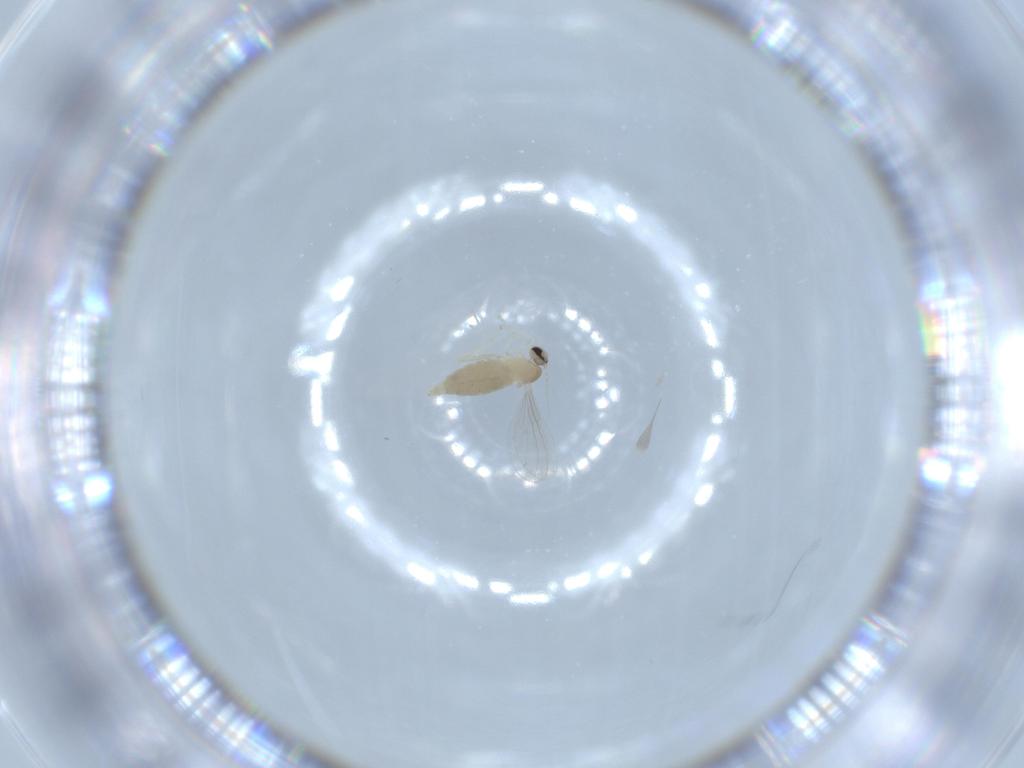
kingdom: Animalia
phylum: Arthropoda
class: Insecta
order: Diptera
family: Cecidomyiidae
